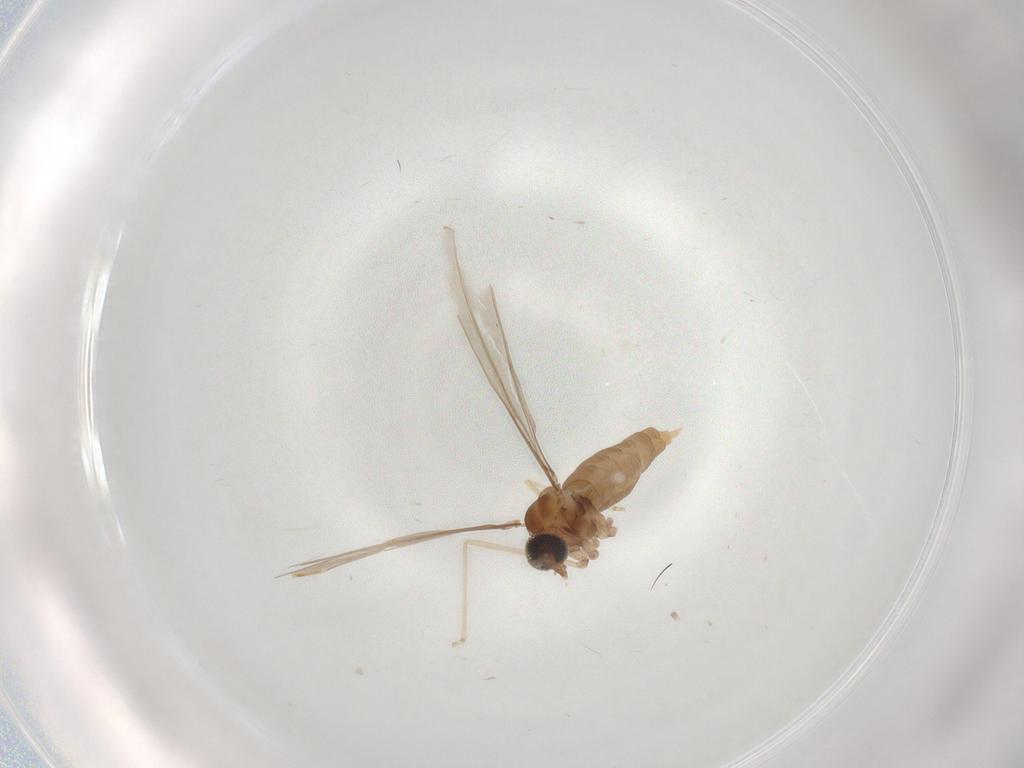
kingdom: Animalia
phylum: Arthropoda
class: Insecta
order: Diptera
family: Cecidomyiidae
